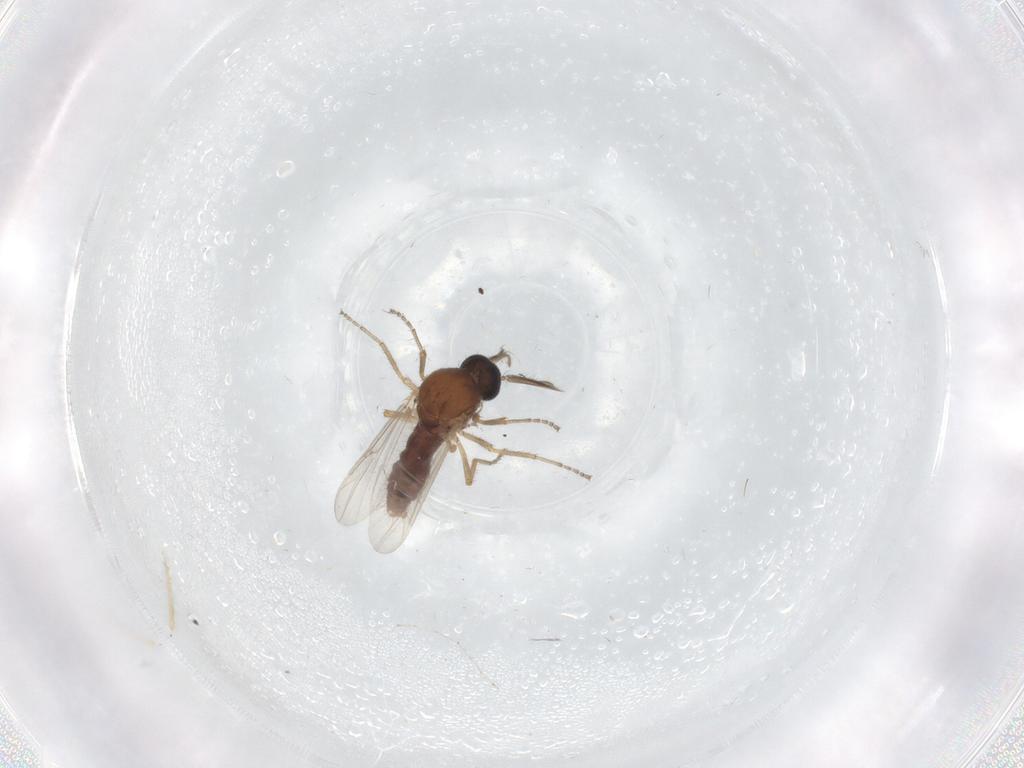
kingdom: Animalia
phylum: Arthropoda
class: Insecta
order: Diptera
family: Cecidomyiidae
